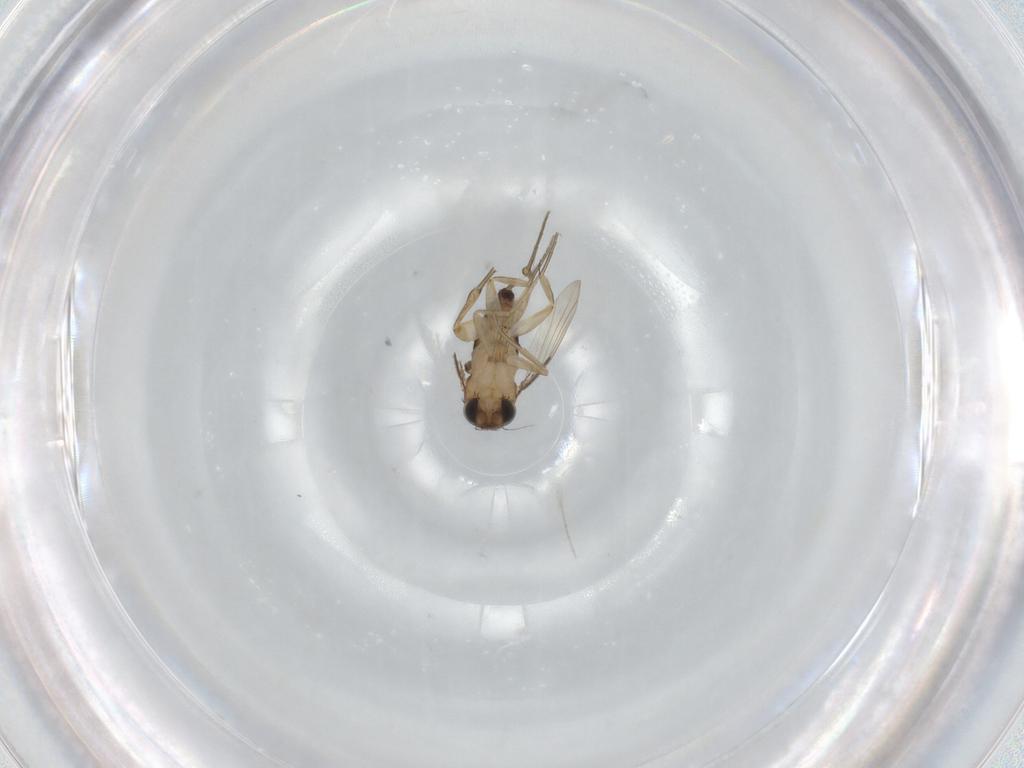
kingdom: Animalia
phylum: Arthropoda
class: Insecta
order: Diptera
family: Phoridae
